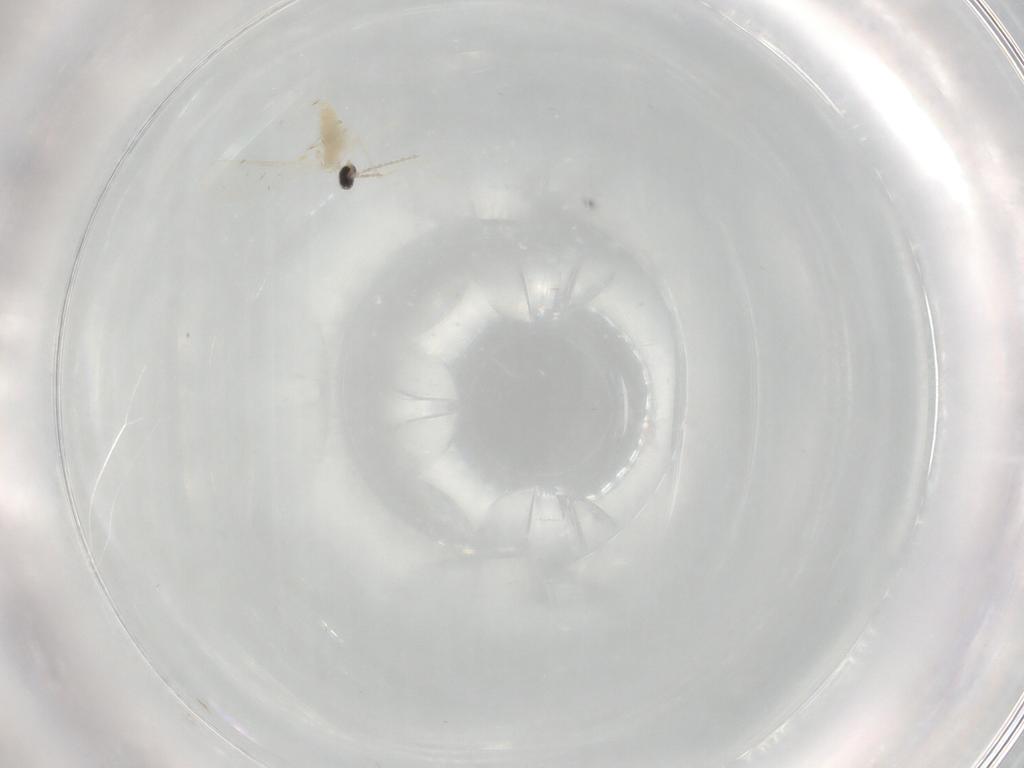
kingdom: Animalia
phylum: Arthropoda
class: Insecta
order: Diptera
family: Cecidomyiidae
